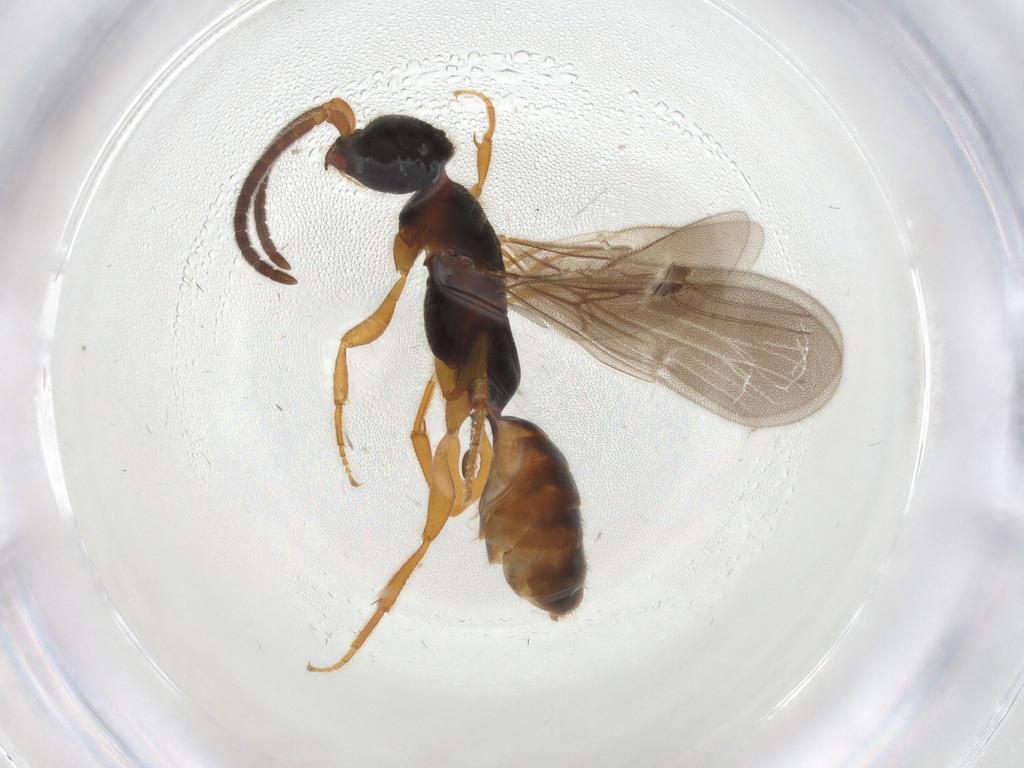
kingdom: Animalia
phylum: Arthropoda
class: Insecta
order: Hymenoptera
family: Bethylidae
